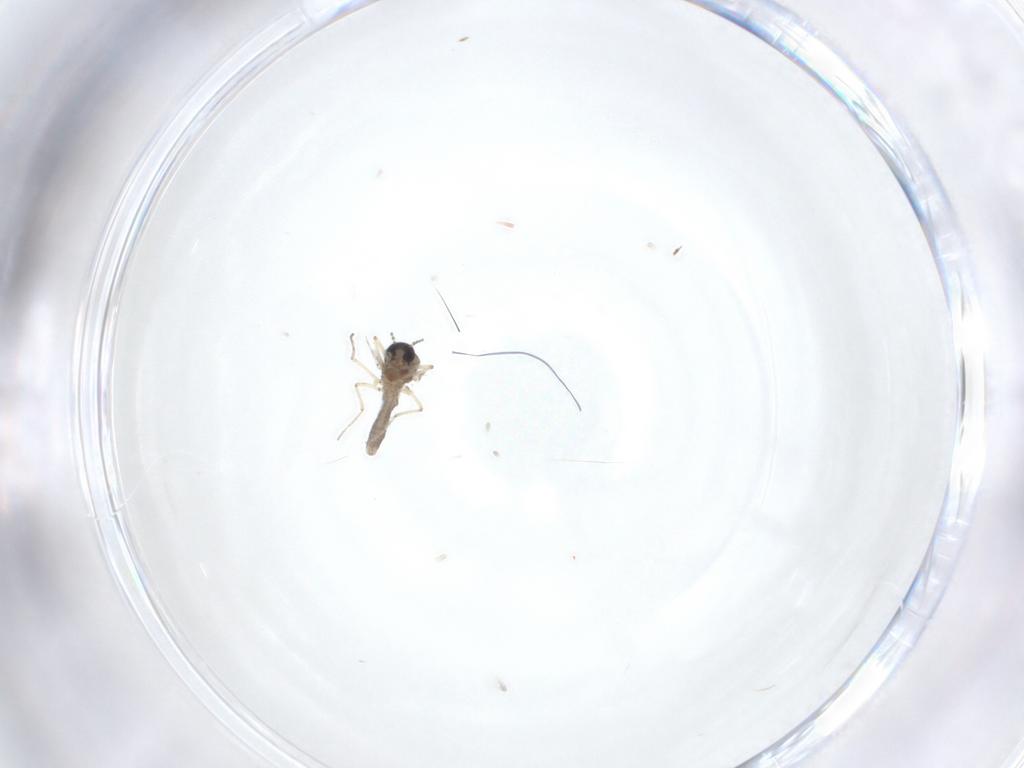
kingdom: Animalia
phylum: Arthropoda
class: Insecta
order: Diptera
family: Ceratopogonidae
